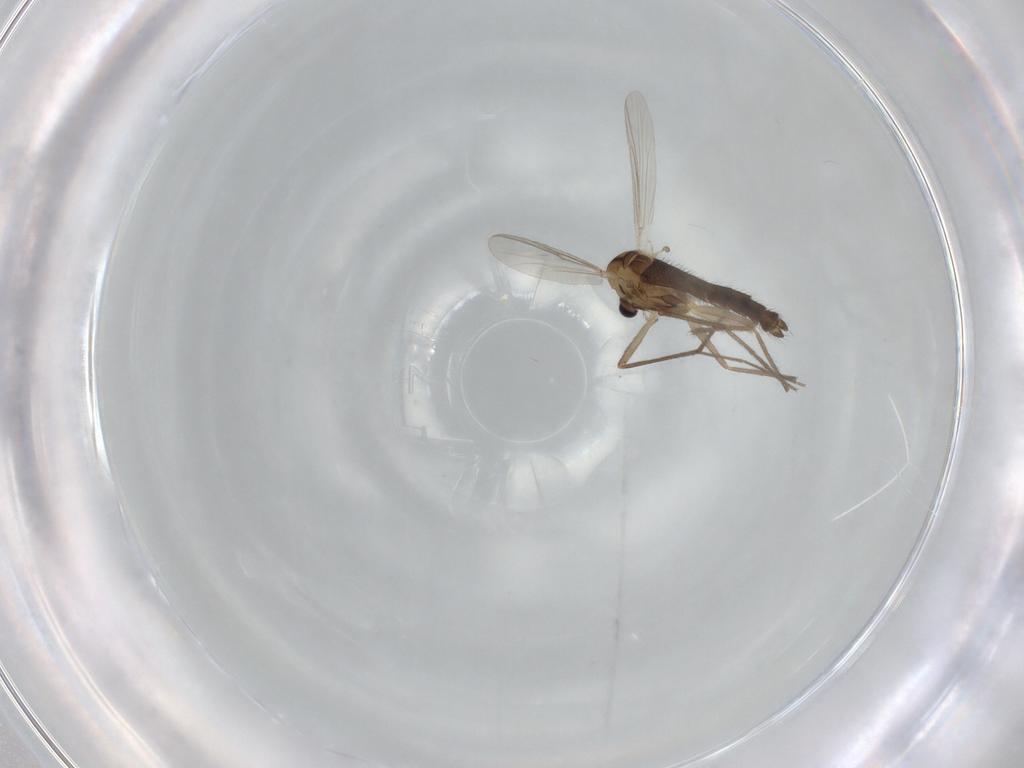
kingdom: Animalia
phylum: Arthropoda
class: Insecta
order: Diptera
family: Chironomidae
